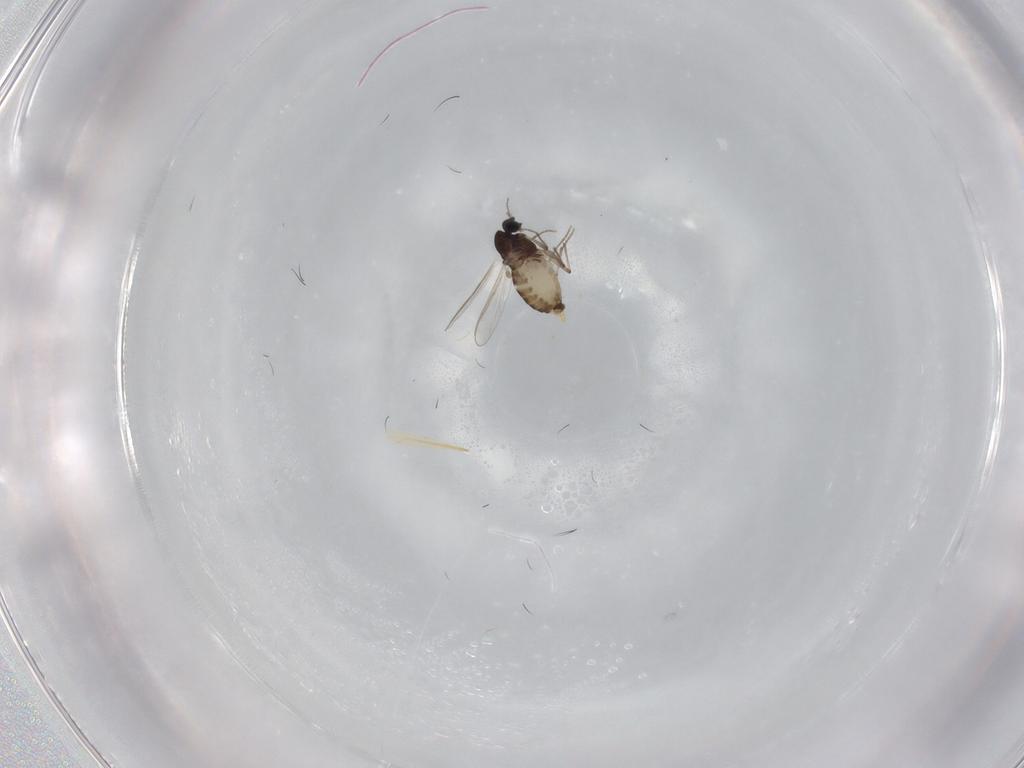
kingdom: Animalia
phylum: Arthropoda
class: Insecta
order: Diptera
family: Chironomidae
